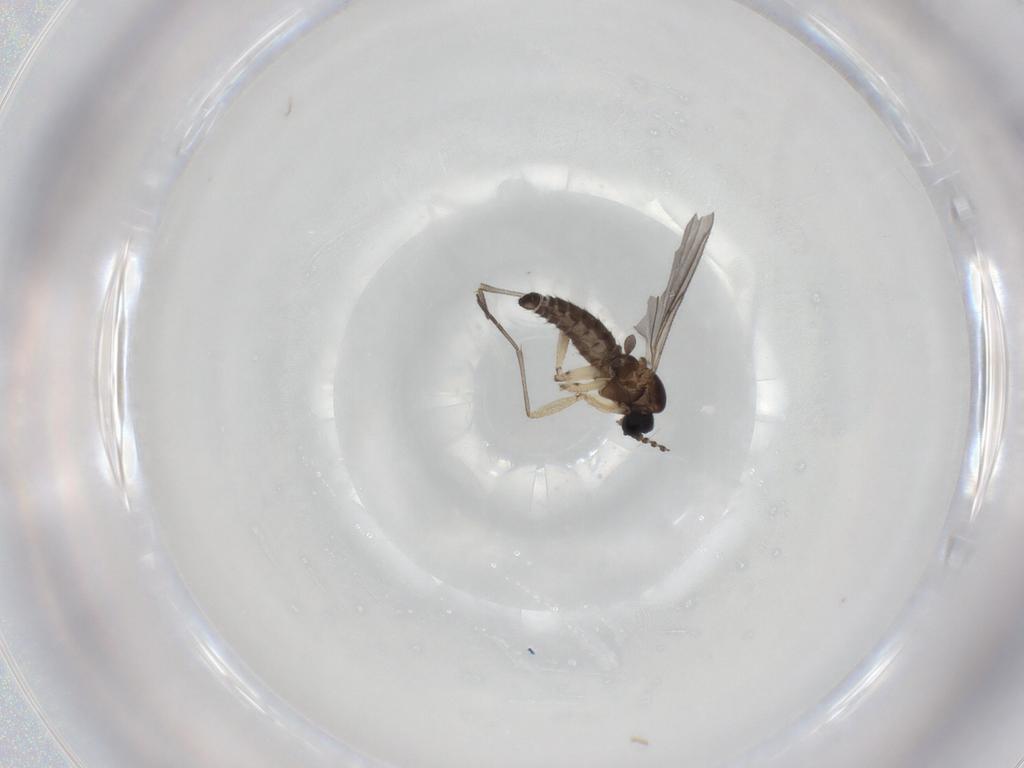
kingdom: Animalia
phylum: Arthropoda
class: Insecta
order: Diptera
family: Sciaridae
